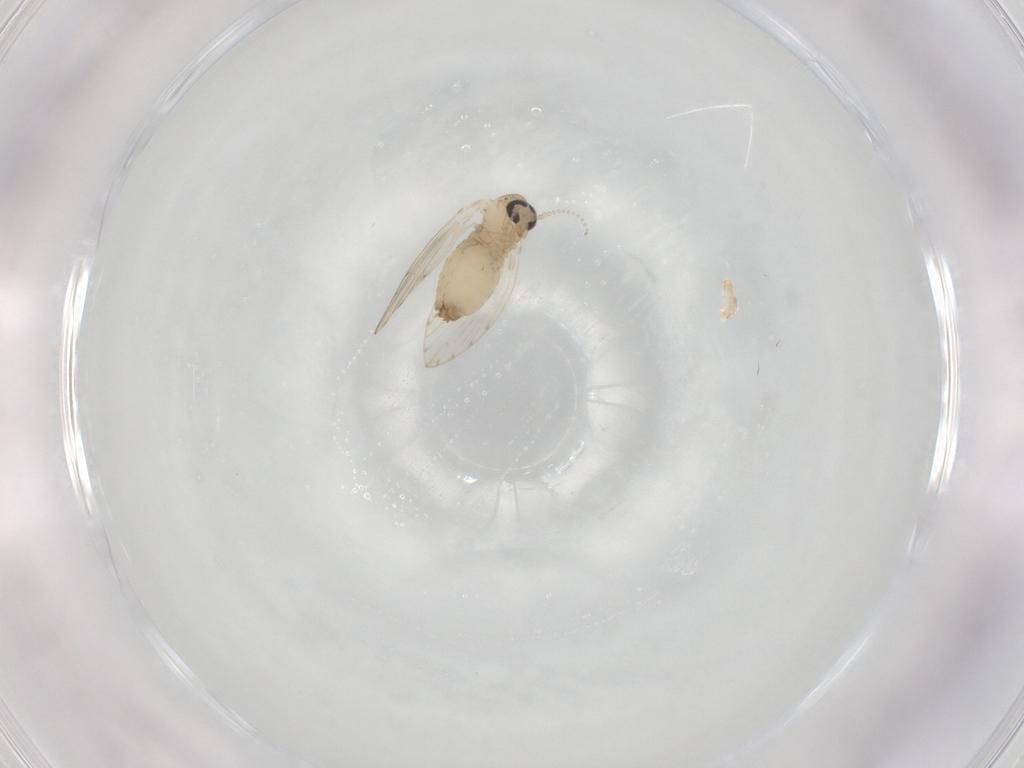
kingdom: Animalia
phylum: Arthropoda
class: Insecta
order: Diptera
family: Psychodidae
